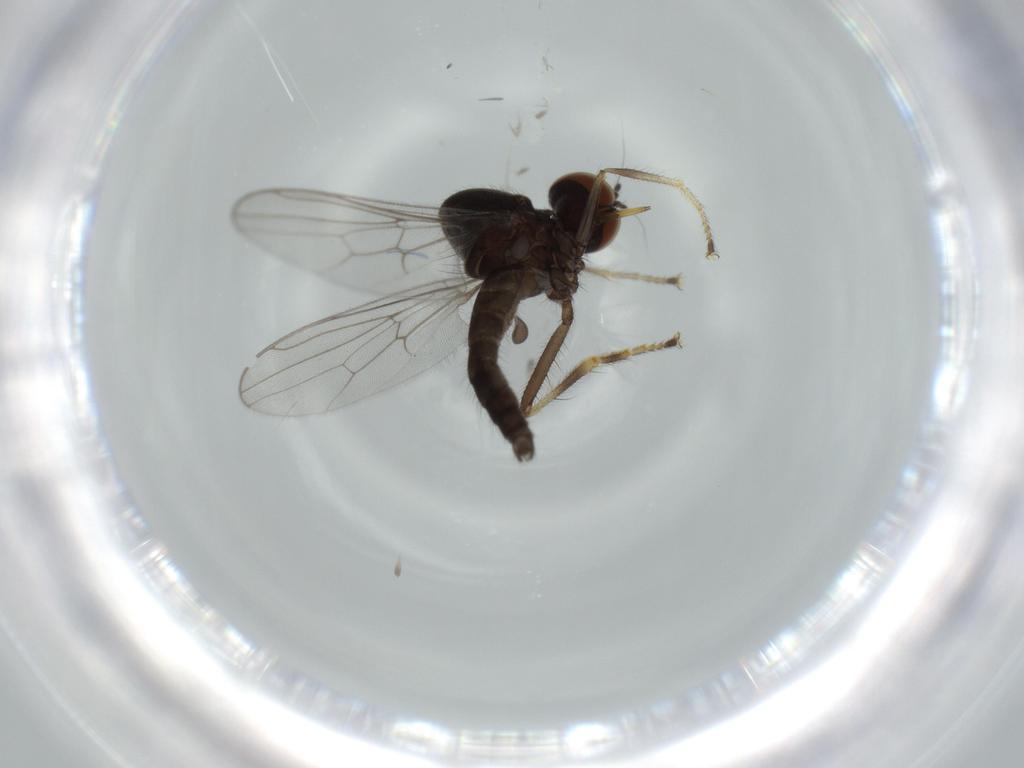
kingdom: Animalia
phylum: Arthropoda
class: Insecta
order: Diptera
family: Hybotidae
